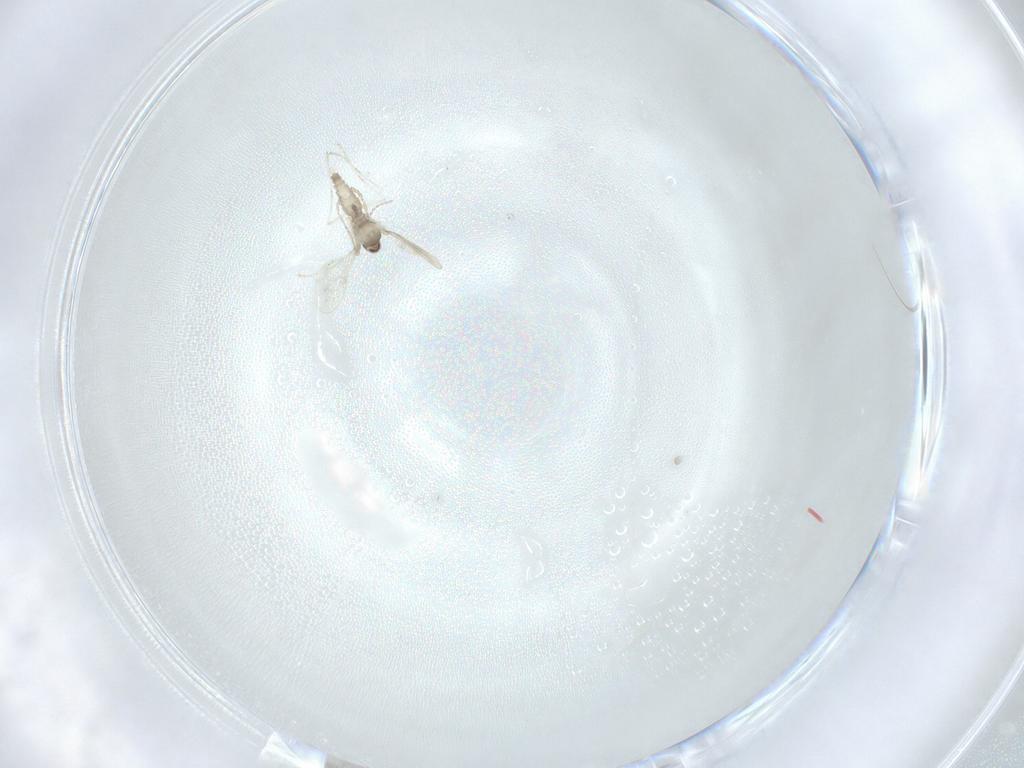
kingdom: Animalia
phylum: Arthropoda
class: Insecta
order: Diptera
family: Cecidomyiidae
